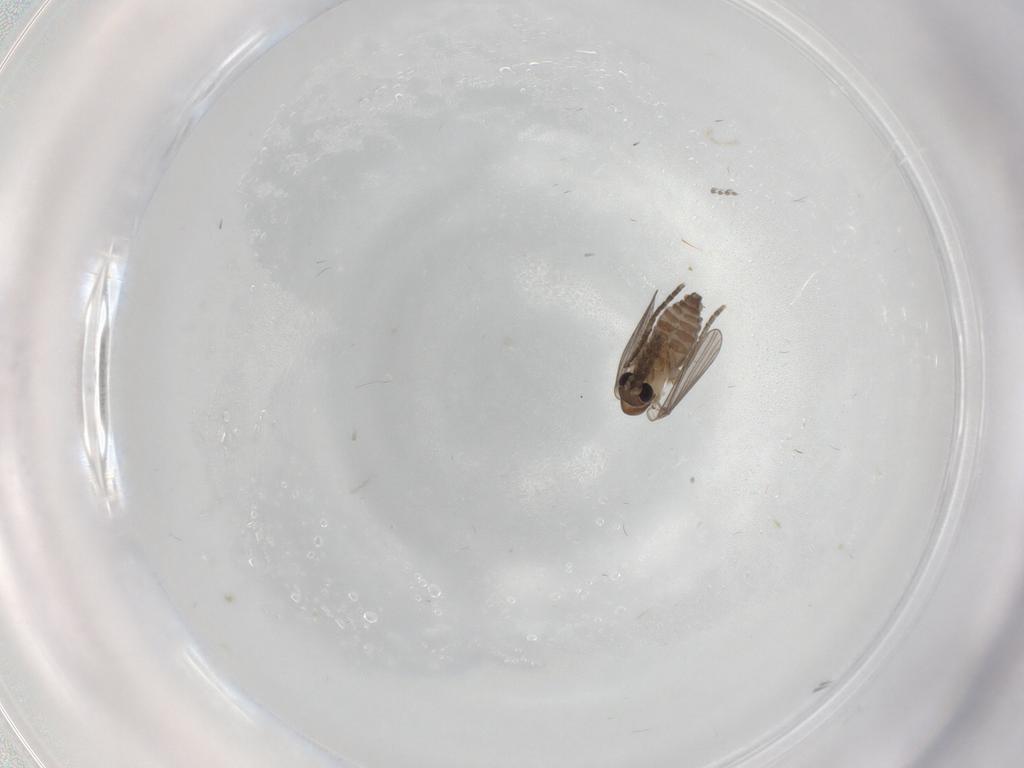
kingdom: Animalia
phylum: Arthropoda
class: Insecta
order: Diptera
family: Psychodidae
